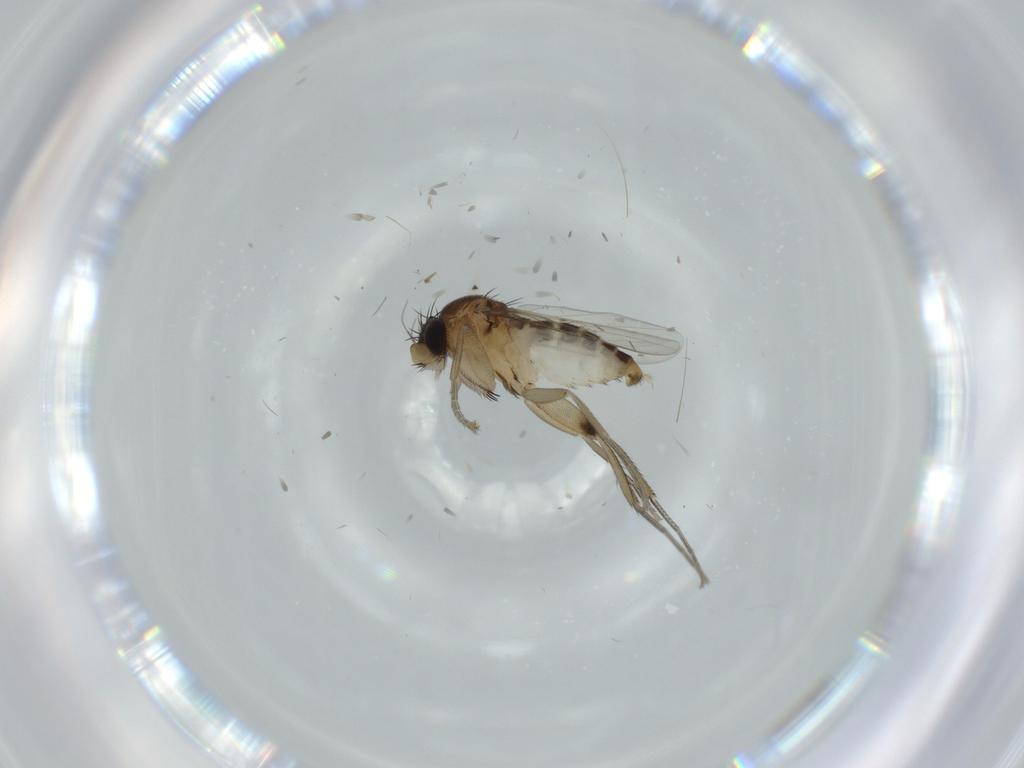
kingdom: Animalia
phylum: Arthropoda
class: Insecta
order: Diptera
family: Phoridae
